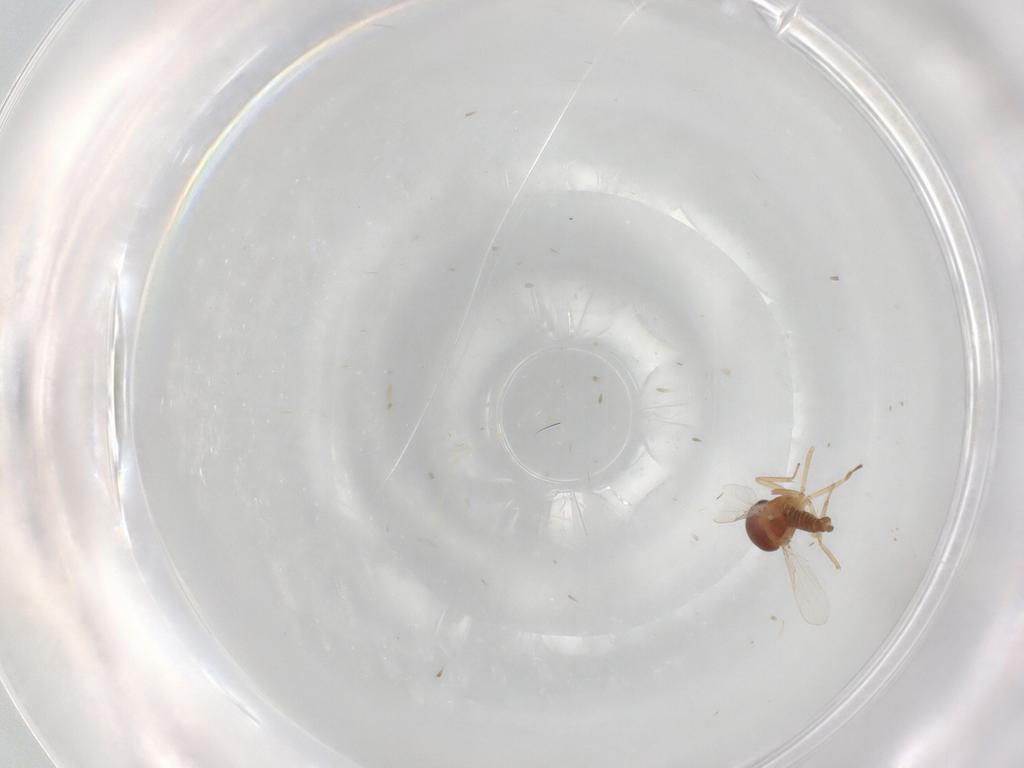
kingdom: Animalia
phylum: Arthropoda
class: Insecta
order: Diptera
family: Ceratopogonidae
